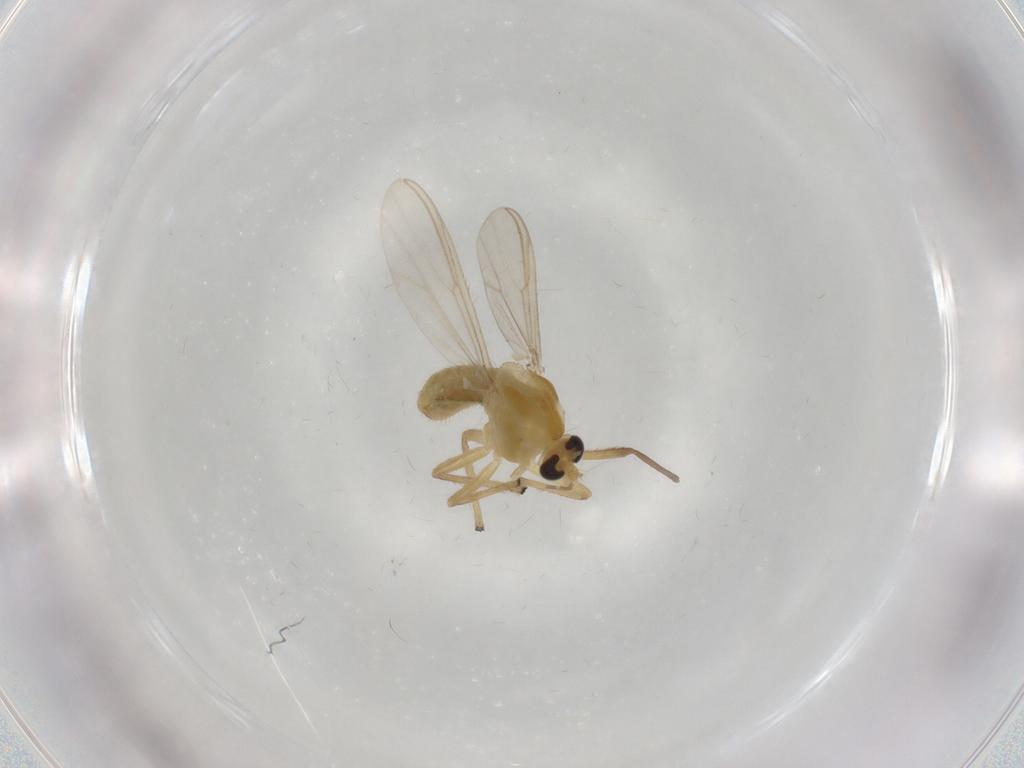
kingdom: Animalia
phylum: Arthropoda
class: Insecta
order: Diptera
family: Chironomidae
